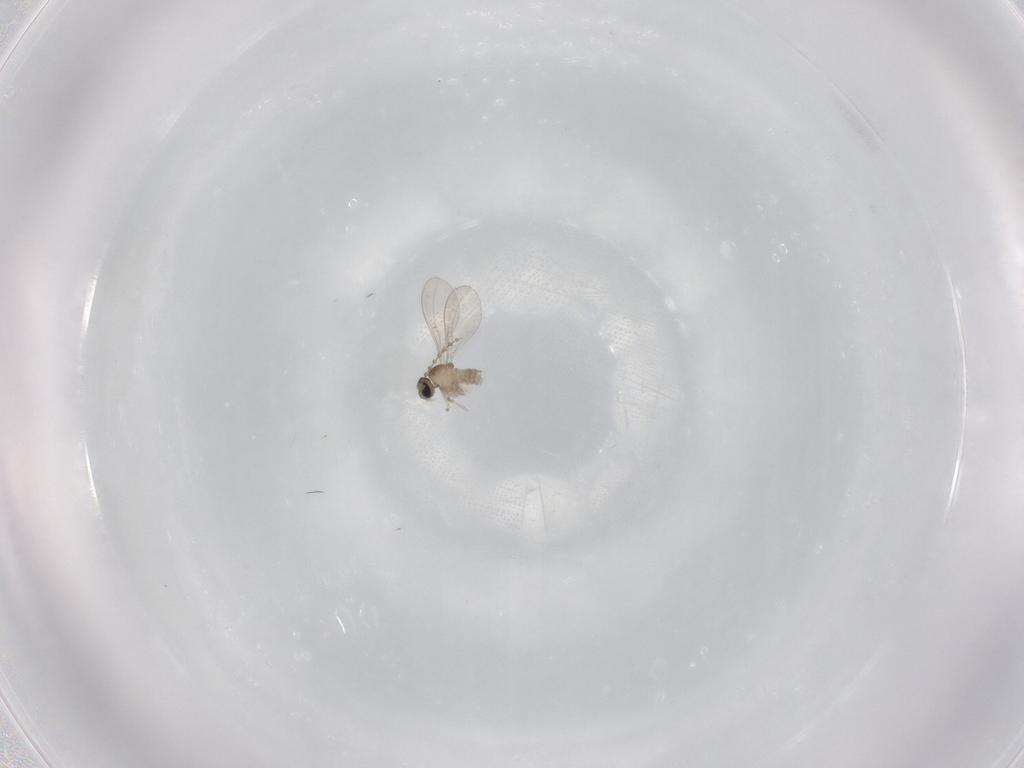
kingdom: Animalia
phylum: Arthropoda
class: Insecta
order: Diptera
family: Cecidomyiidae
